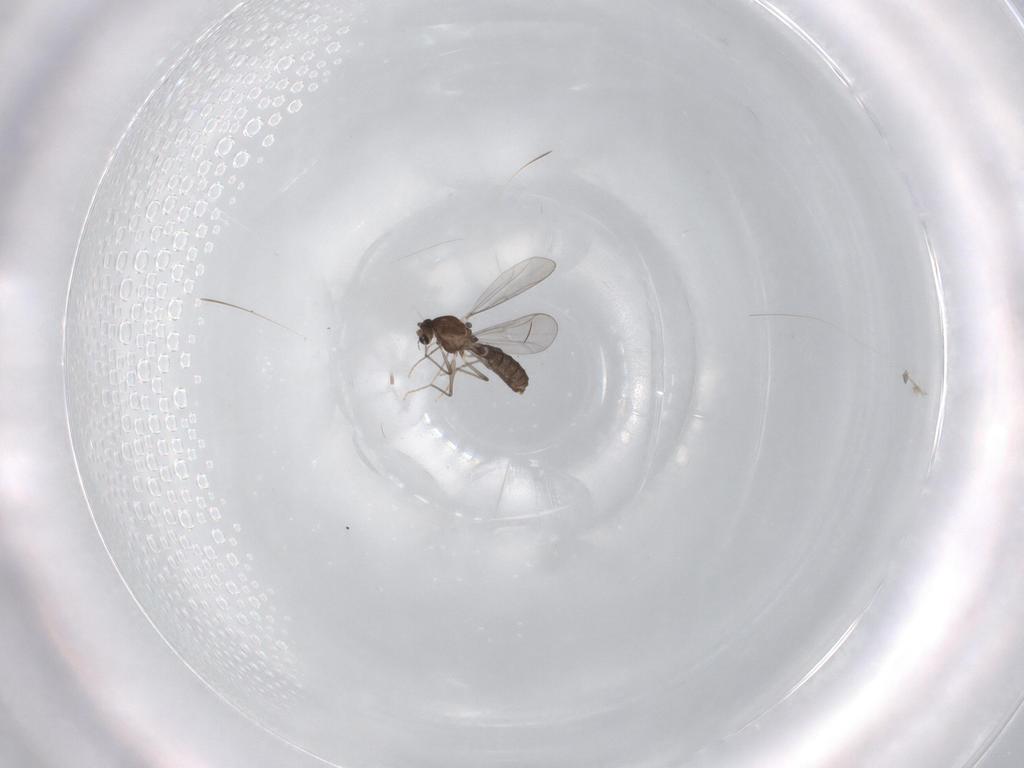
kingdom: Animalia
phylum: Arthropoda
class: Insecta
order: Diptera
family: Chironomidae
